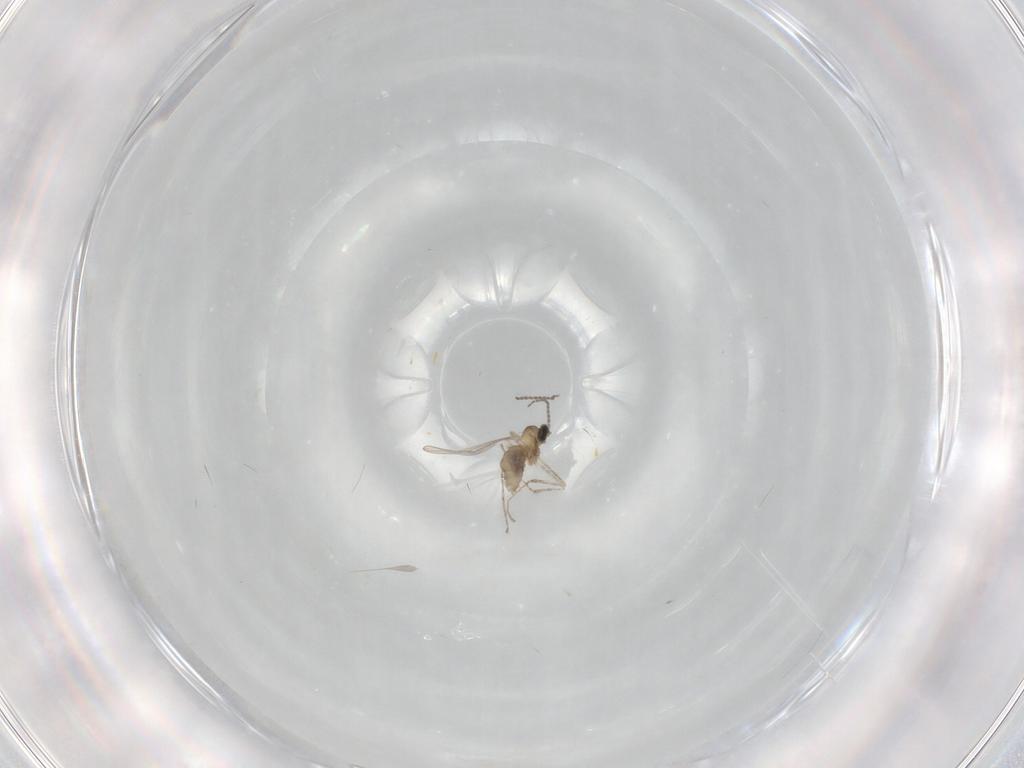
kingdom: Animalia
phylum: Arthropoda
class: Insecta
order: Diptera
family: Cecidomyiidae
